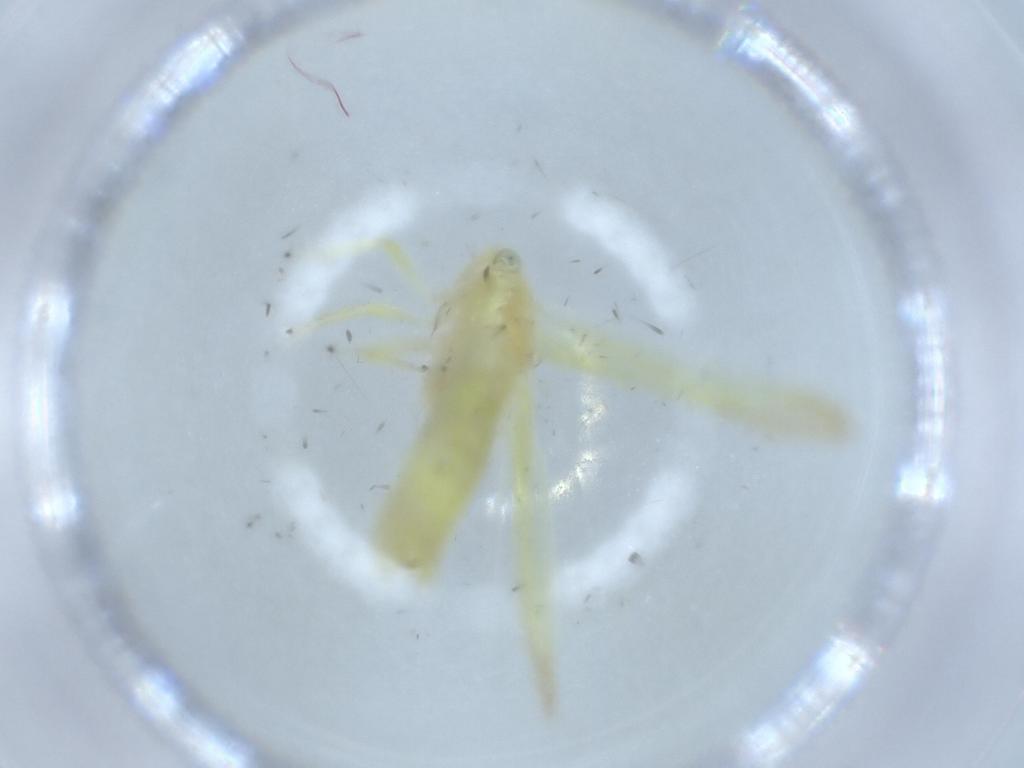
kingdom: Animalia
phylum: Arthropoda
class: Insecta
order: Hemiptera
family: Cicadellidae
